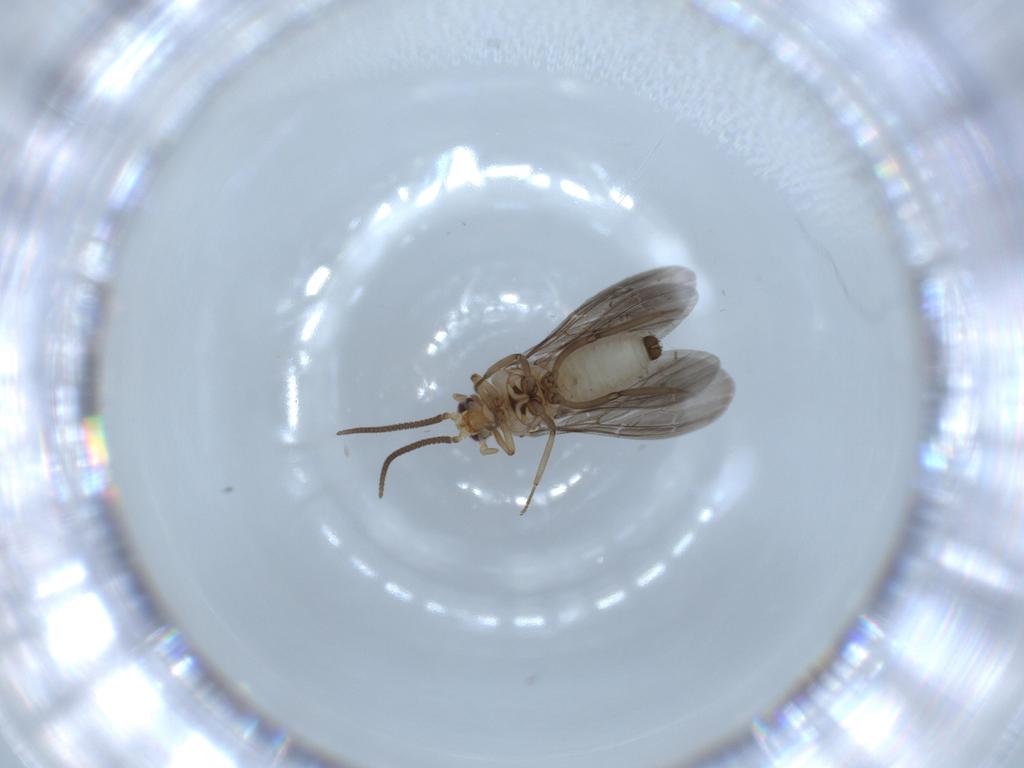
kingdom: Animalia
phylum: Arthropoda
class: Insecta
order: Neuroptera
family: Coniopterygidae
